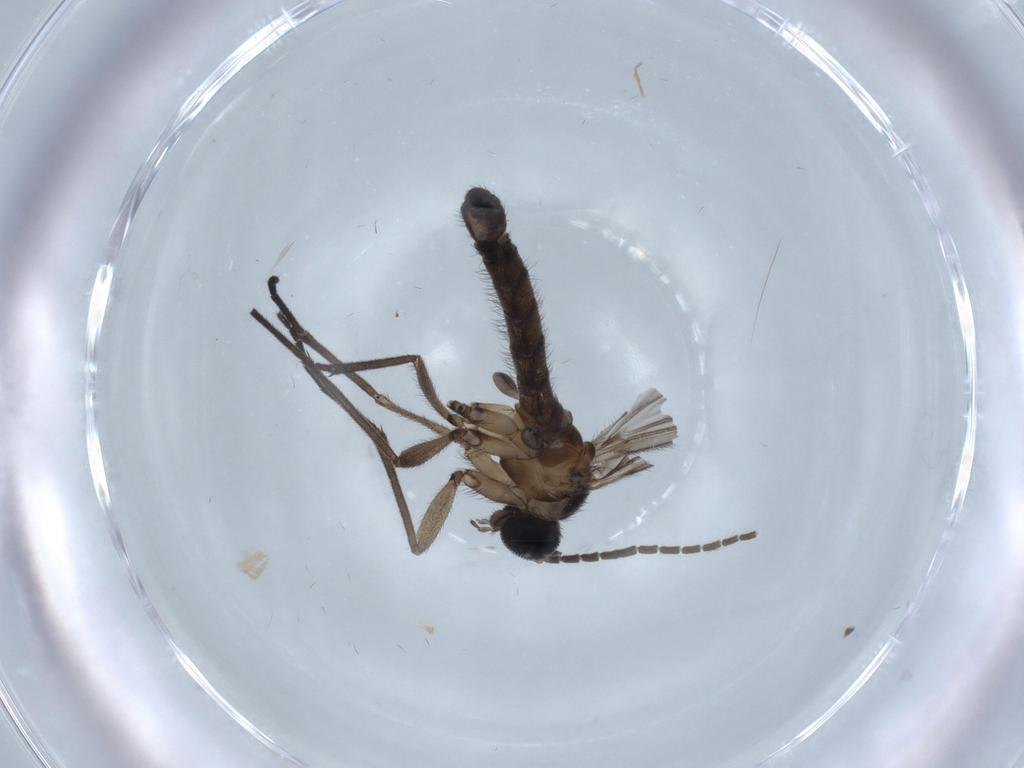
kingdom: Animalia
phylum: Arthropoda
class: Insecta
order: Diptera
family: Sciaridae
